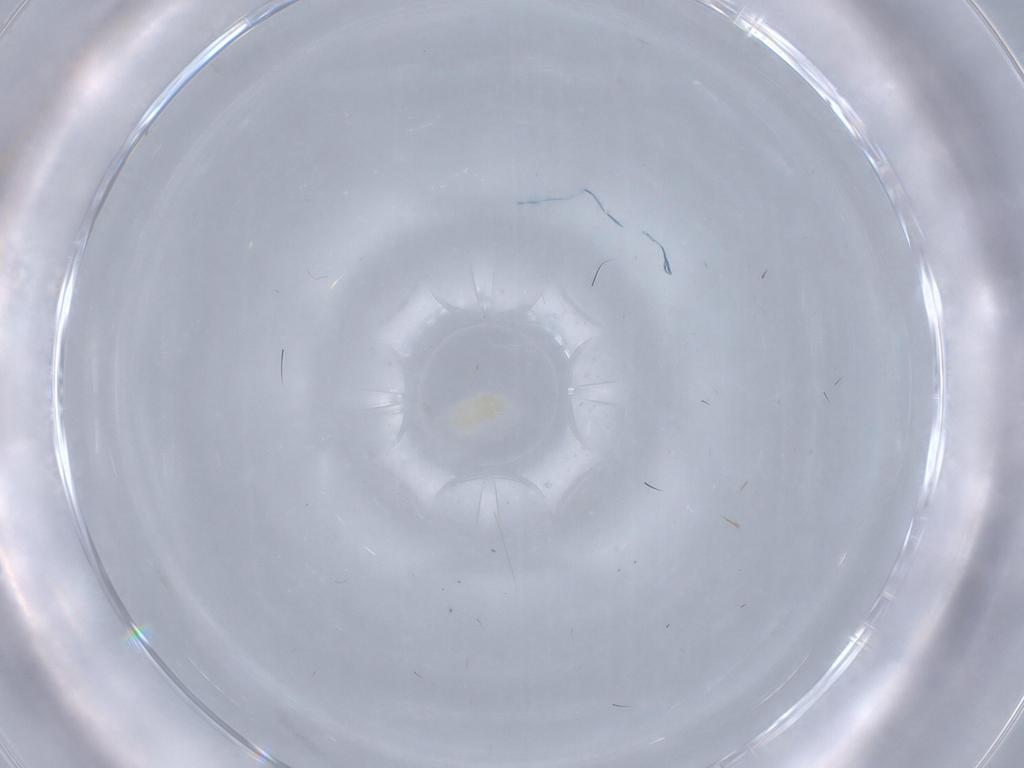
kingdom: Animalia
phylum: Arthropoda
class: Arachnida
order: Trombidiformes
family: Eupodidae
